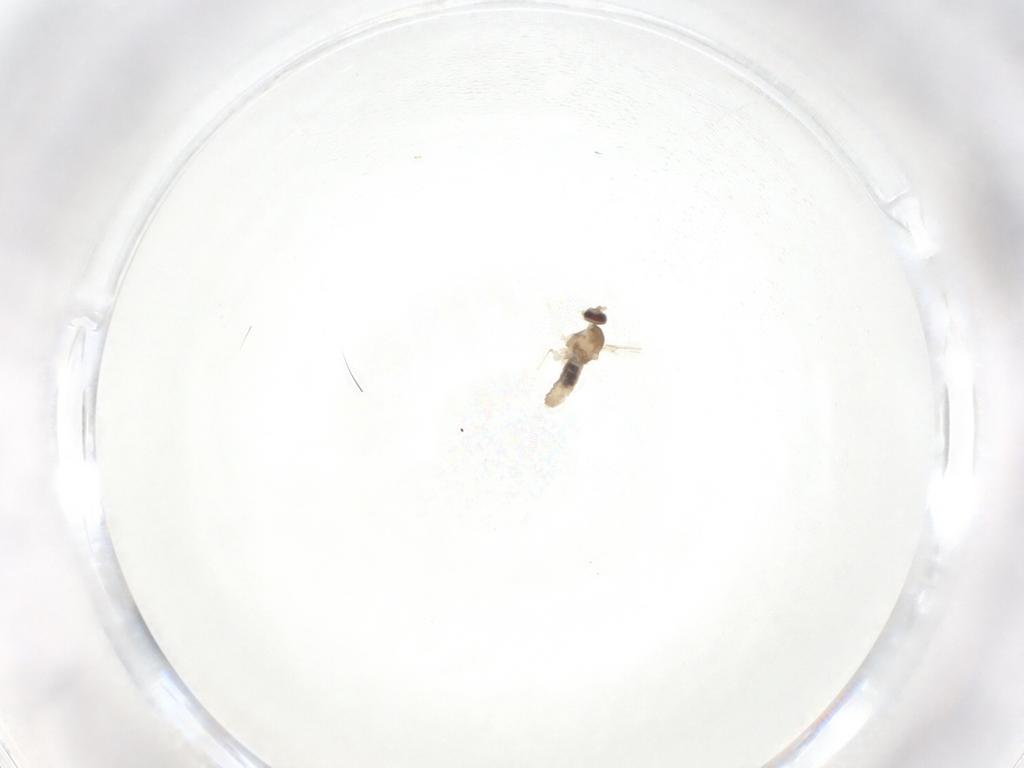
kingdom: Animalia
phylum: Arthropoda
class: Insecta
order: Diptera
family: Cecidomyiidae
